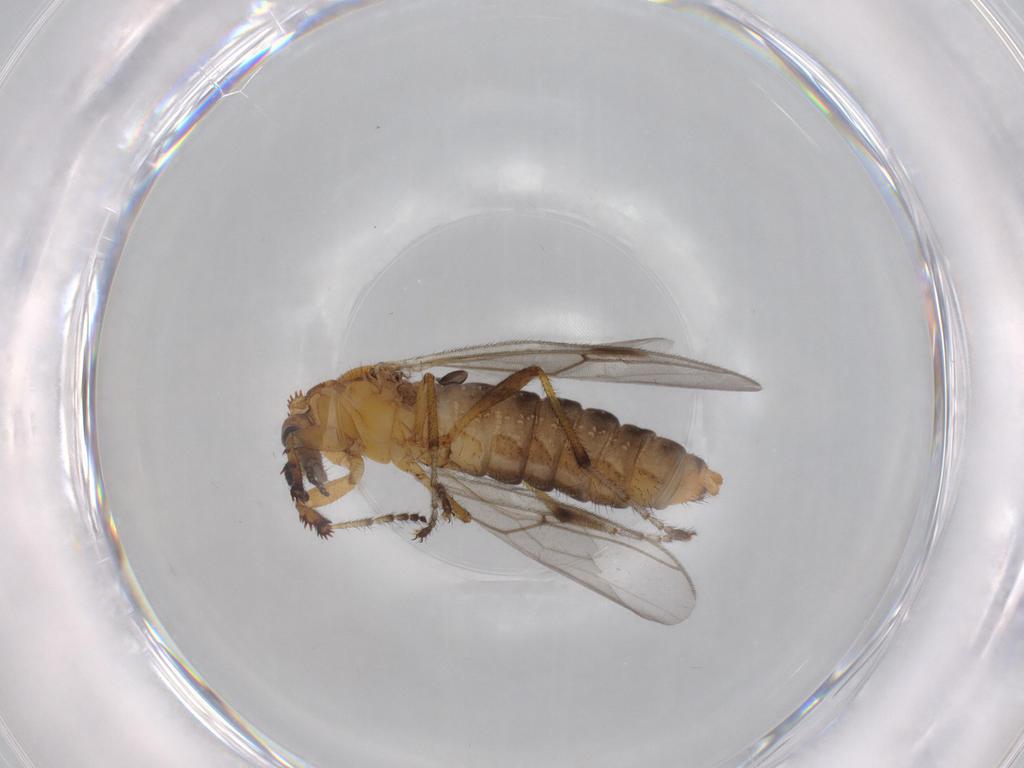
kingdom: Animalia
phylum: Arthropoda
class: Insecta
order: Diptera
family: Bibionidae
